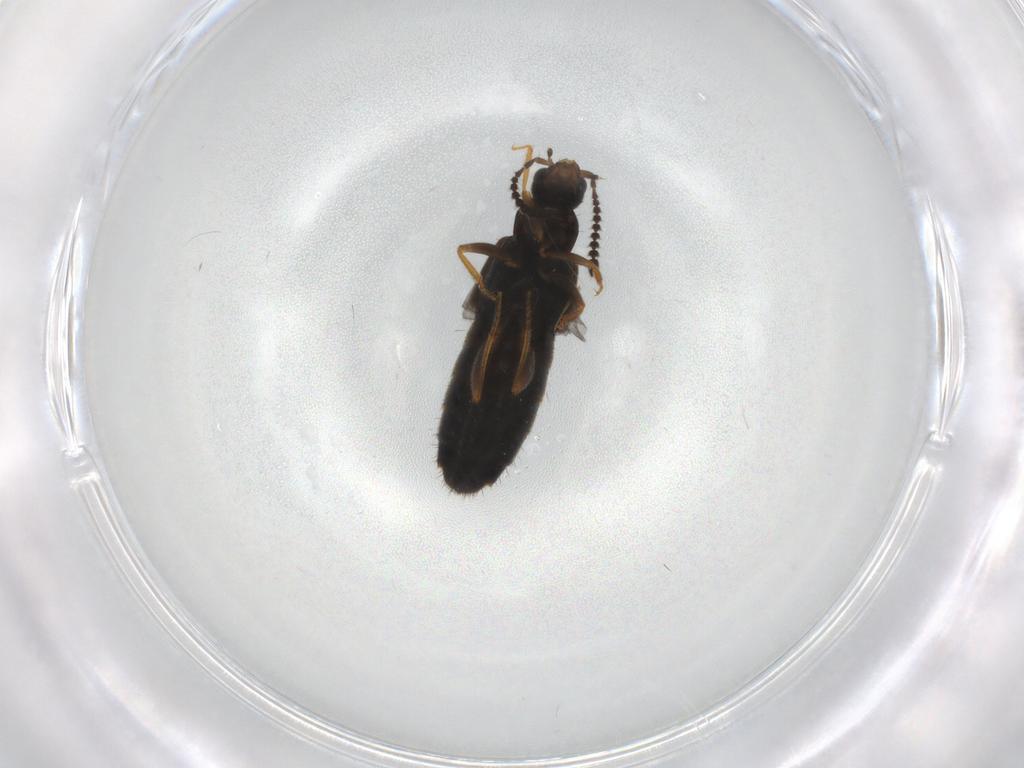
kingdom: Animalia
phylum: Arthropoda
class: Insecta
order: Coleoptera
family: Staphylinidae
